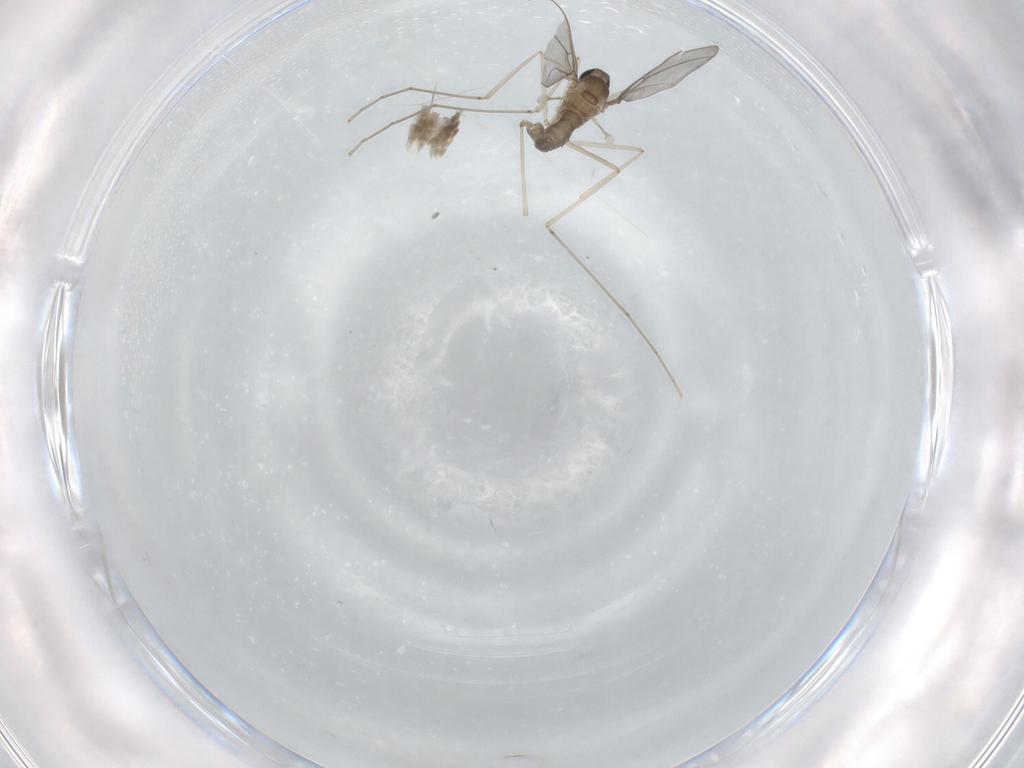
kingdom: Animalia
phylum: Arthropoda
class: Insecta
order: Diptera
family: Cecidomyiidae
